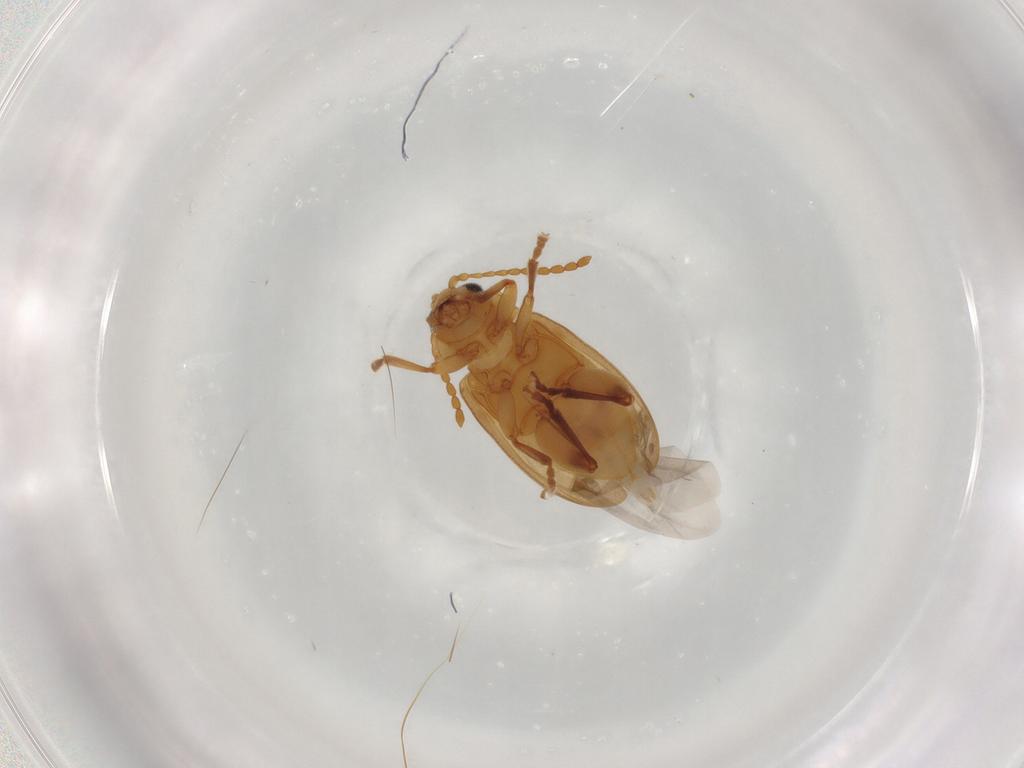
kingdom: Animalia
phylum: Arthropoda
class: Insecta
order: Coleoptera
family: Chrysomelidae
